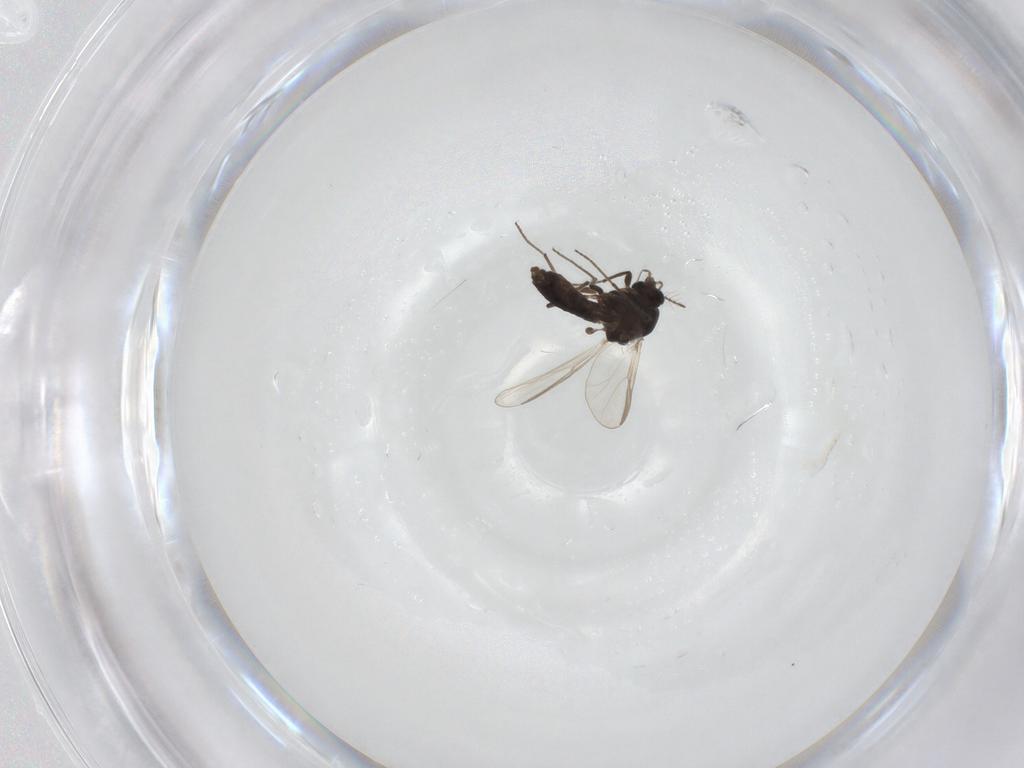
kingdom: Animalia
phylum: Arthropoda
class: Insecta
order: Diptera
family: Chironomidae
